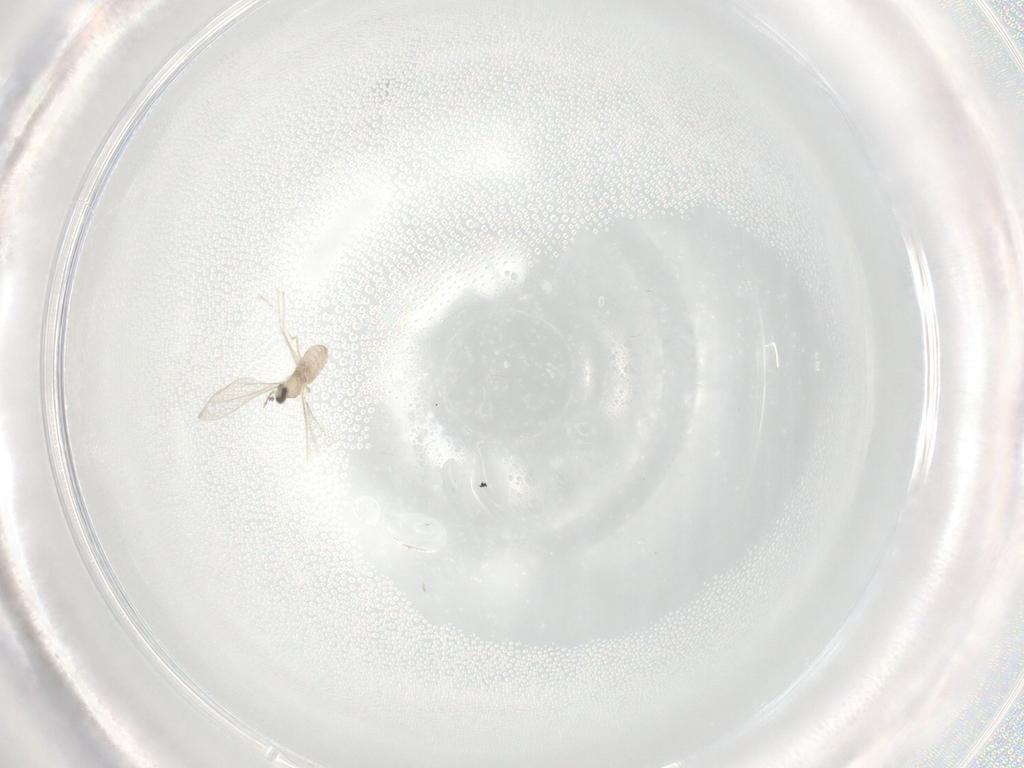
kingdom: Animalia
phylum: Arthropoda
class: Insecta
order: Diptera
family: Cecidomyiidae
